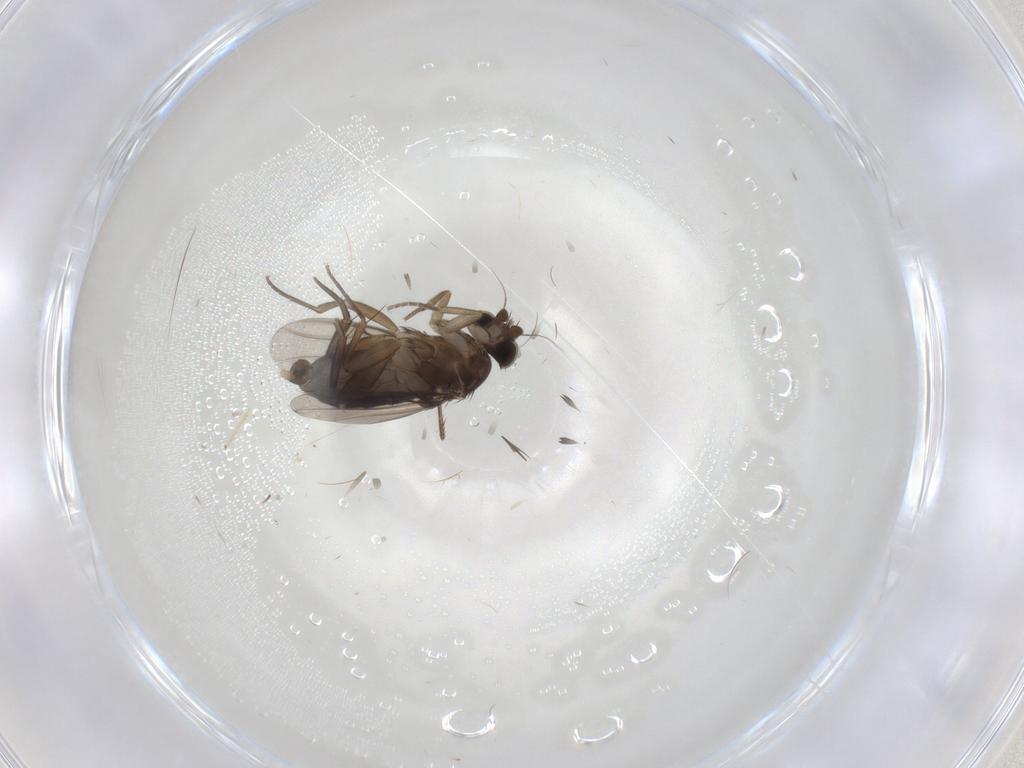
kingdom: Animalia
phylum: Arthropoda
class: Insecta
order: Diptera
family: Phoridae
